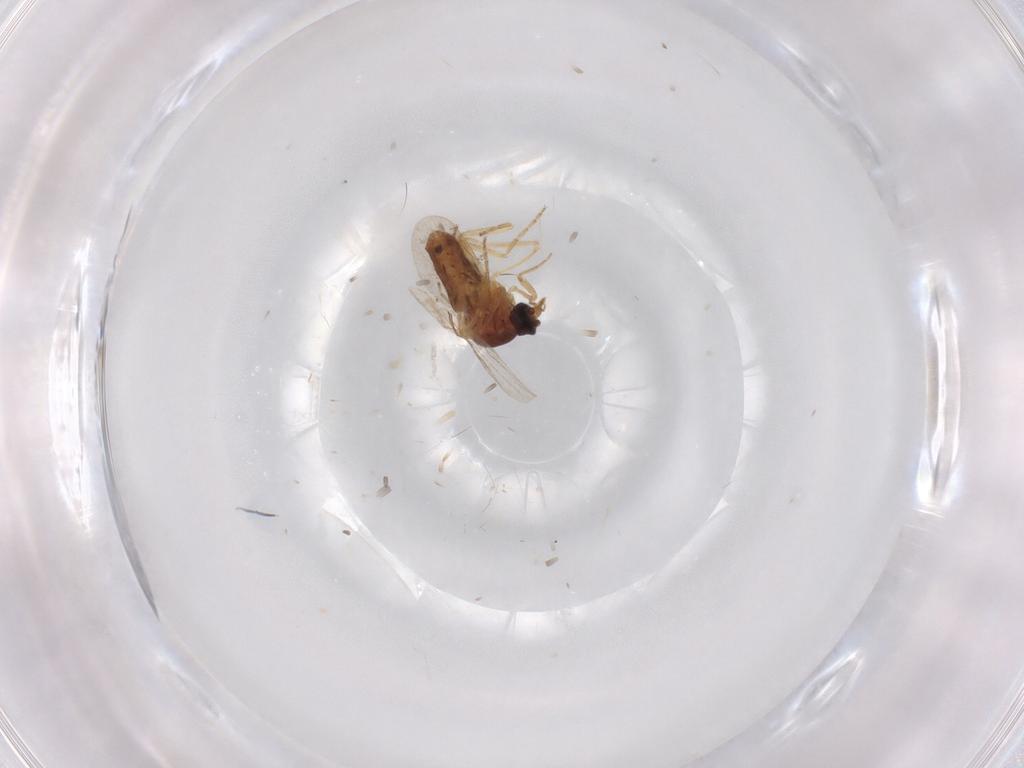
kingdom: Animalia
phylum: Arthropoda
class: Insecta
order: Diptera
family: Ceratopogonidae
